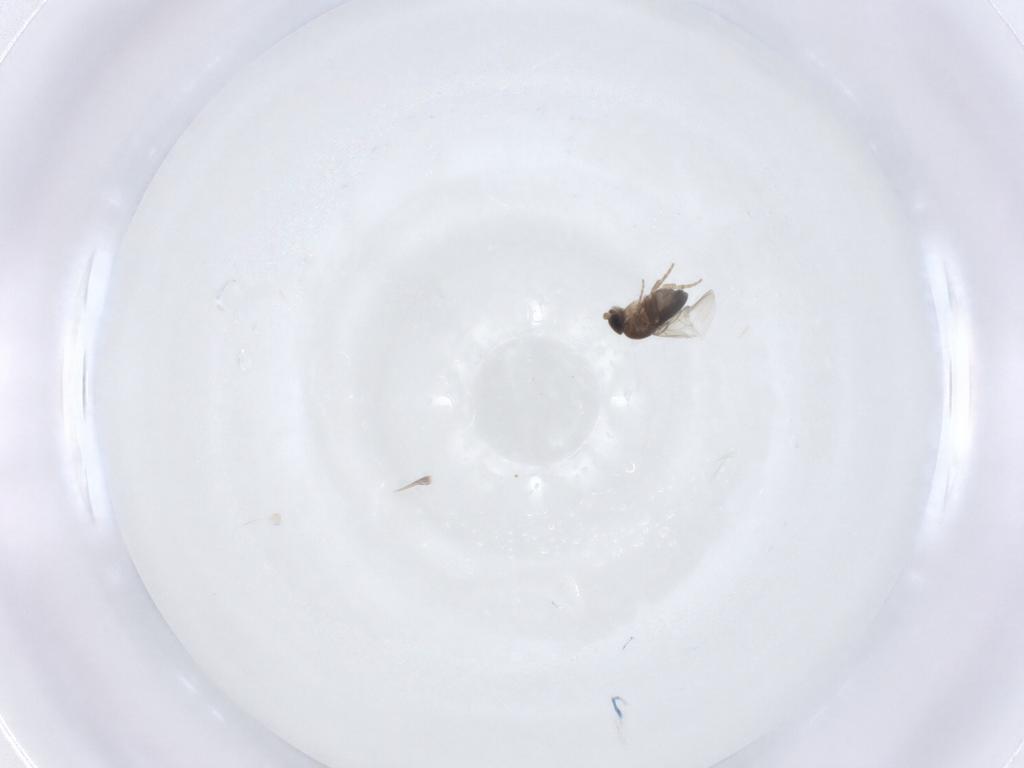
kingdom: Animalia
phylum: Arthropoda
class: Insecta
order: Diptera
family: Phoridae
